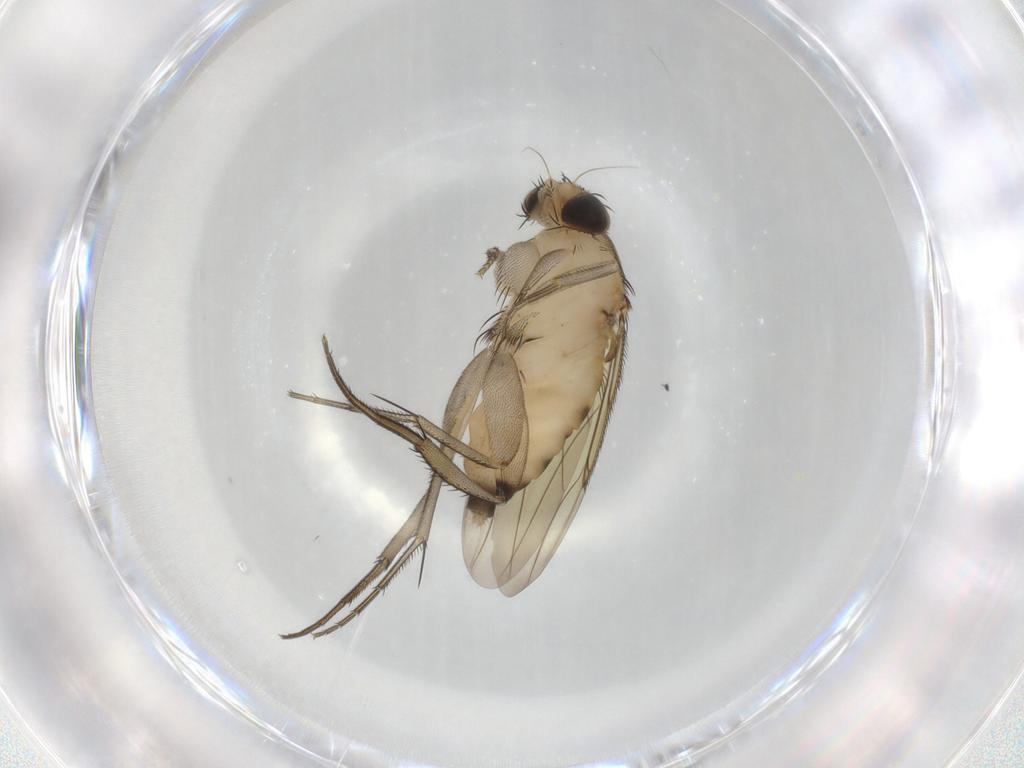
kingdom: Animalia
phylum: Arthropoda
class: Insecta
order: Diptera
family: Phoridae
